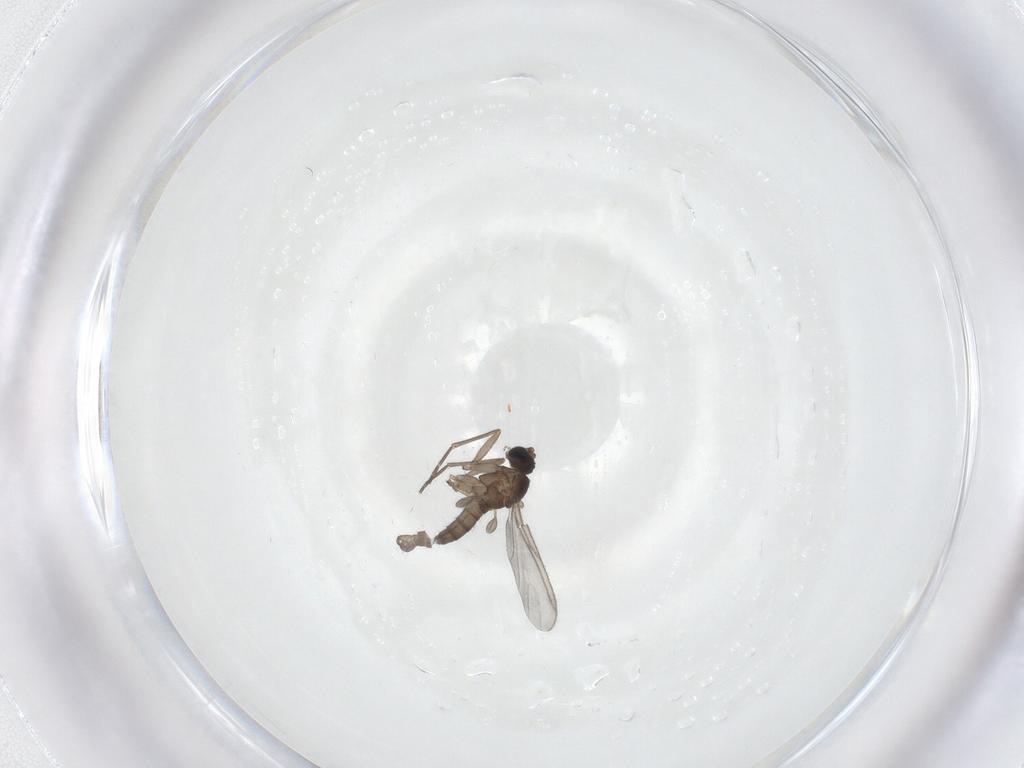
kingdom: Animalia
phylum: Arthropoda
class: Insecta
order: Diptera
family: Sciaridae
